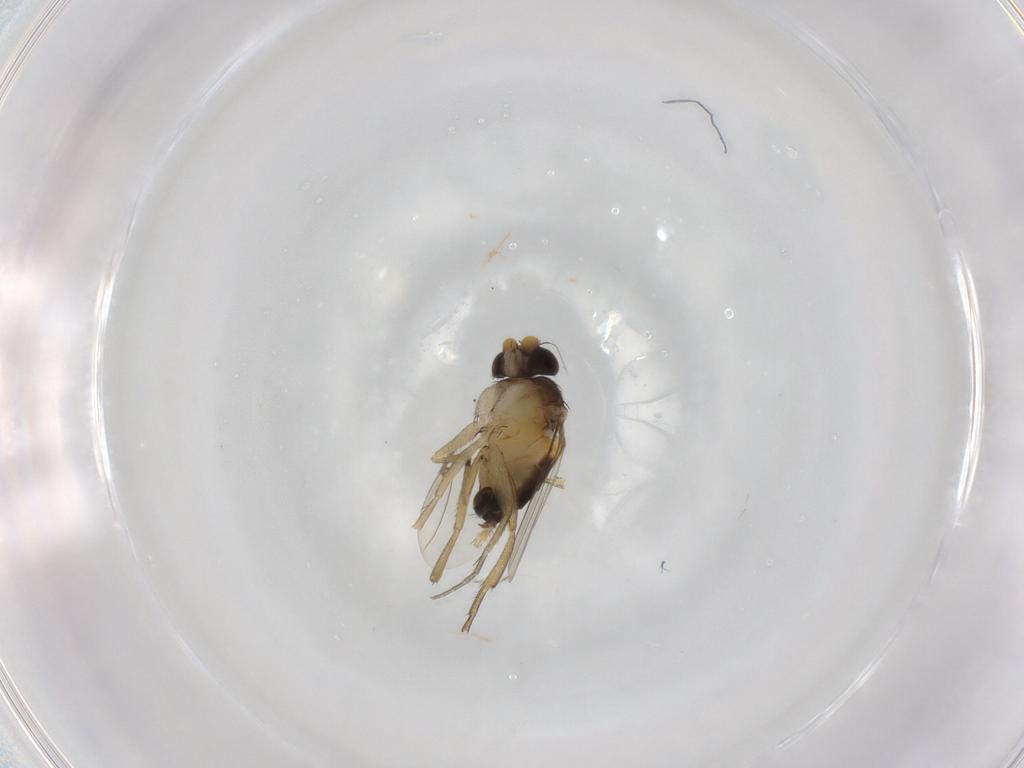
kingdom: Animalia
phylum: Arthropoda
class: Insecta
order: Diptera
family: Phoridae
